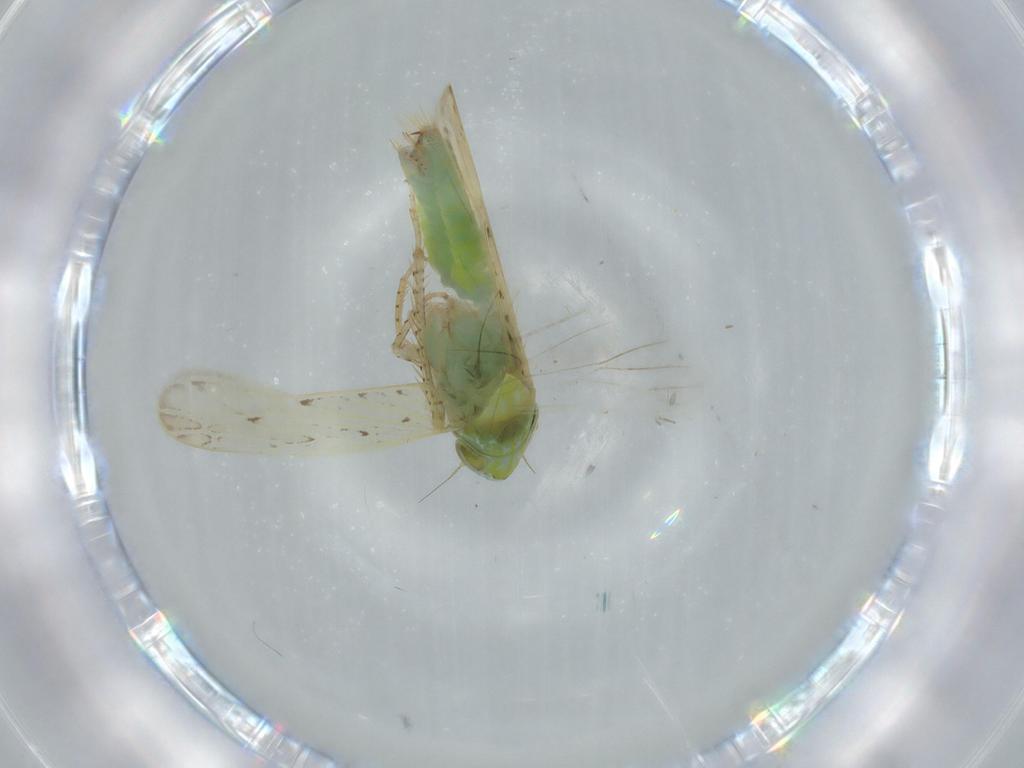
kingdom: Animalia
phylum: Arthropoda
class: Insecta
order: Hemiptera
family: Cicadellidae
